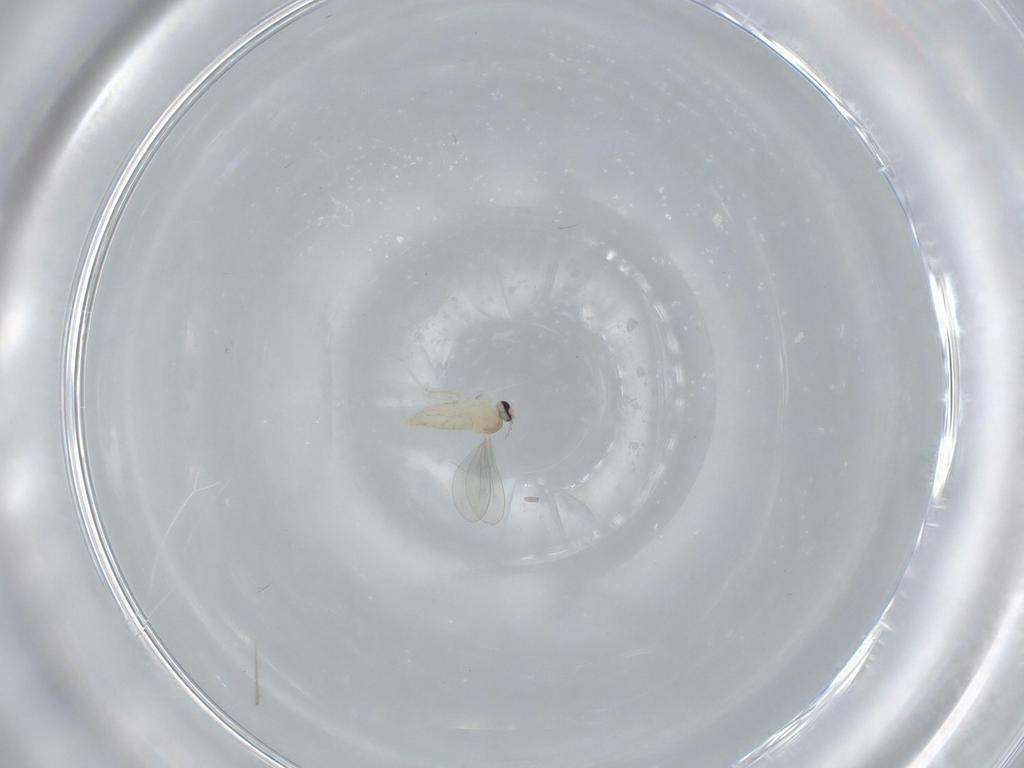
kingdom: Animalia
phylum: Arthropoda
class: Insecta
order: Diptera
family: Cecidomyiidae
